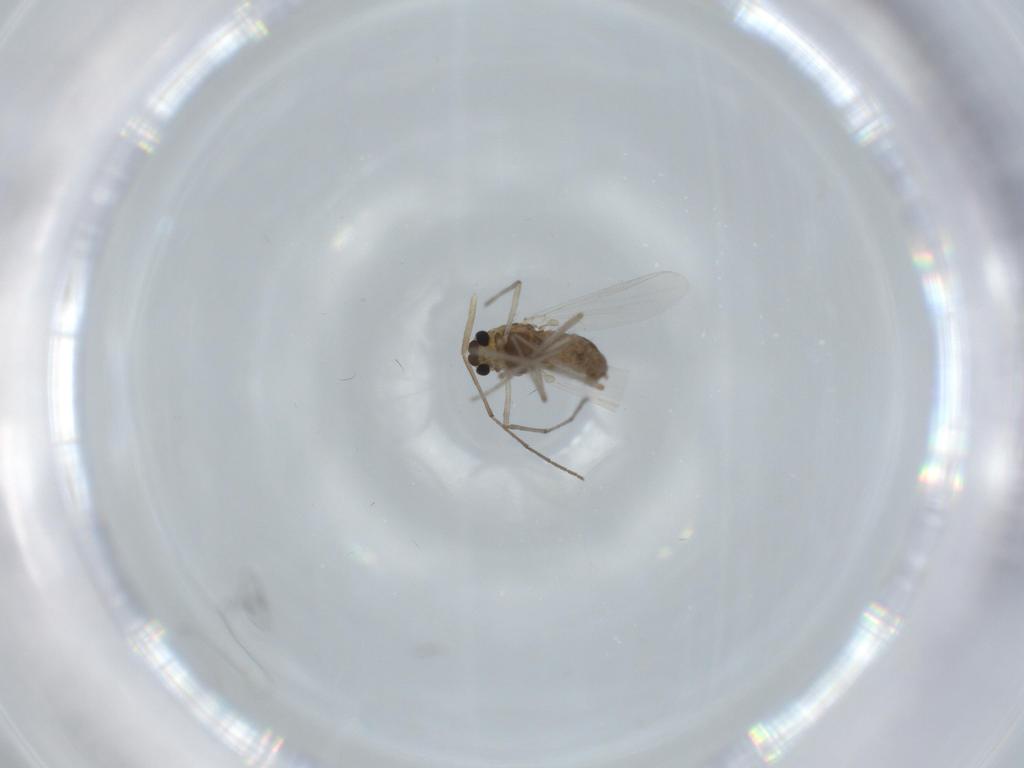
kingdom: Animalia
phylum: Arthropoda
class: Insecta
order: Diptera
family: Chironomidae
